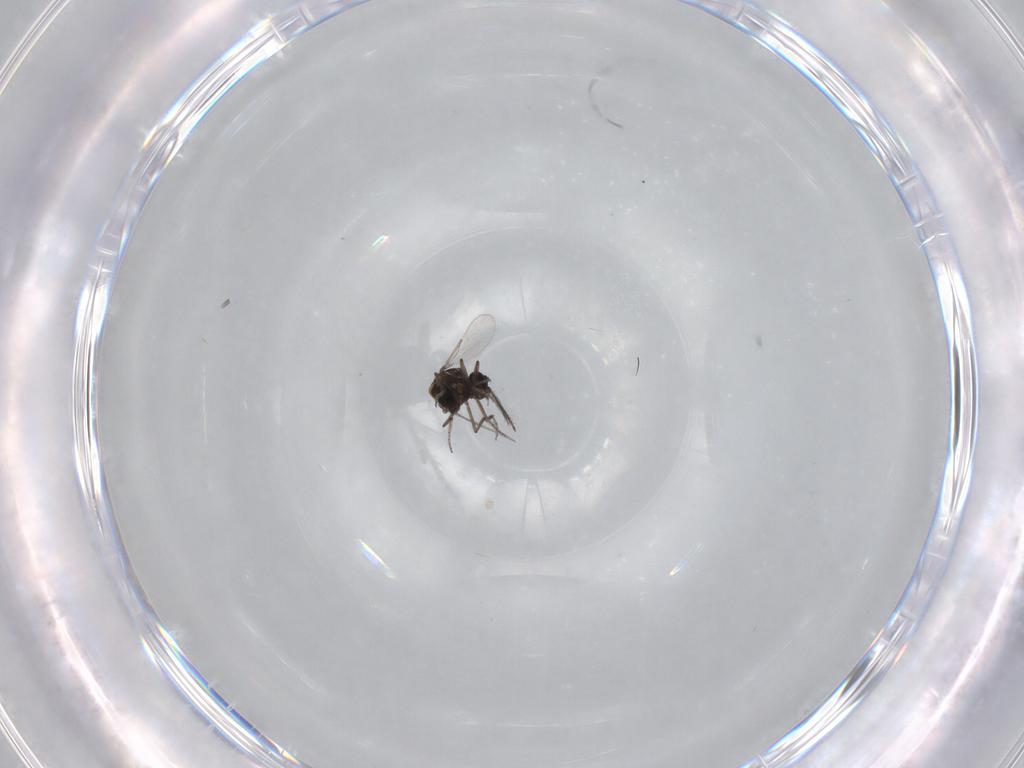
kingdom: Animalia
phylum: Arthropoda
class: Insecta
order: Diptera
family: Ceratopogonidae
